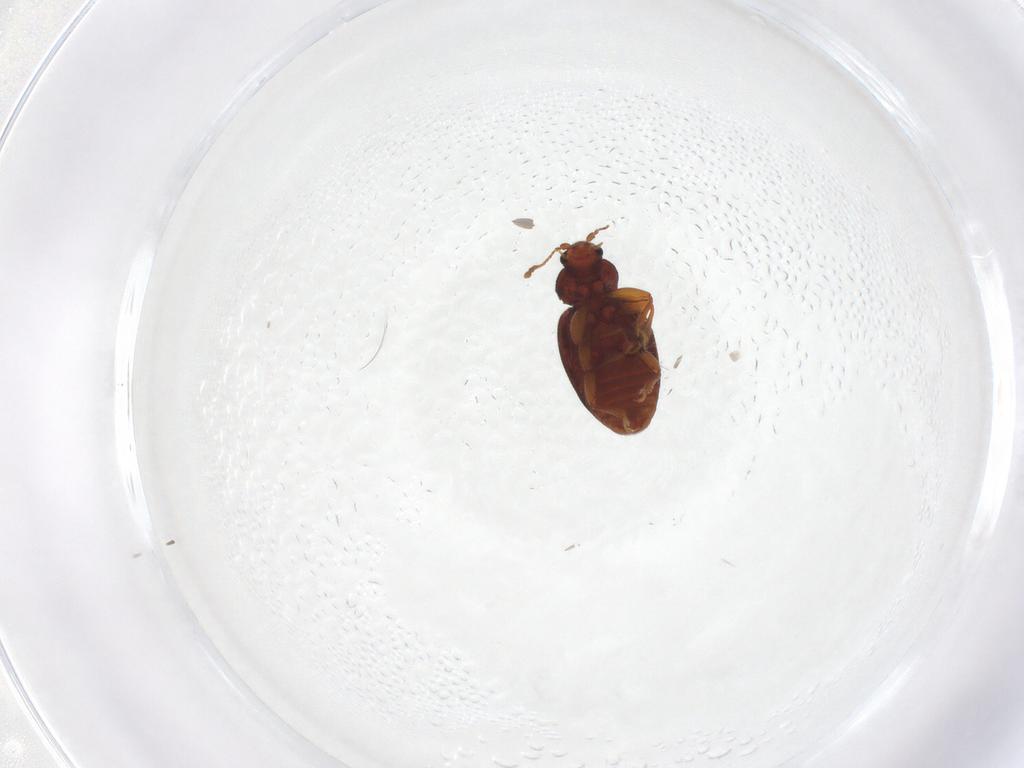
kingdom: Animalia
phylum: Arthropoda
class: Insecta
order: Coleoptera
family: Latridiidae
